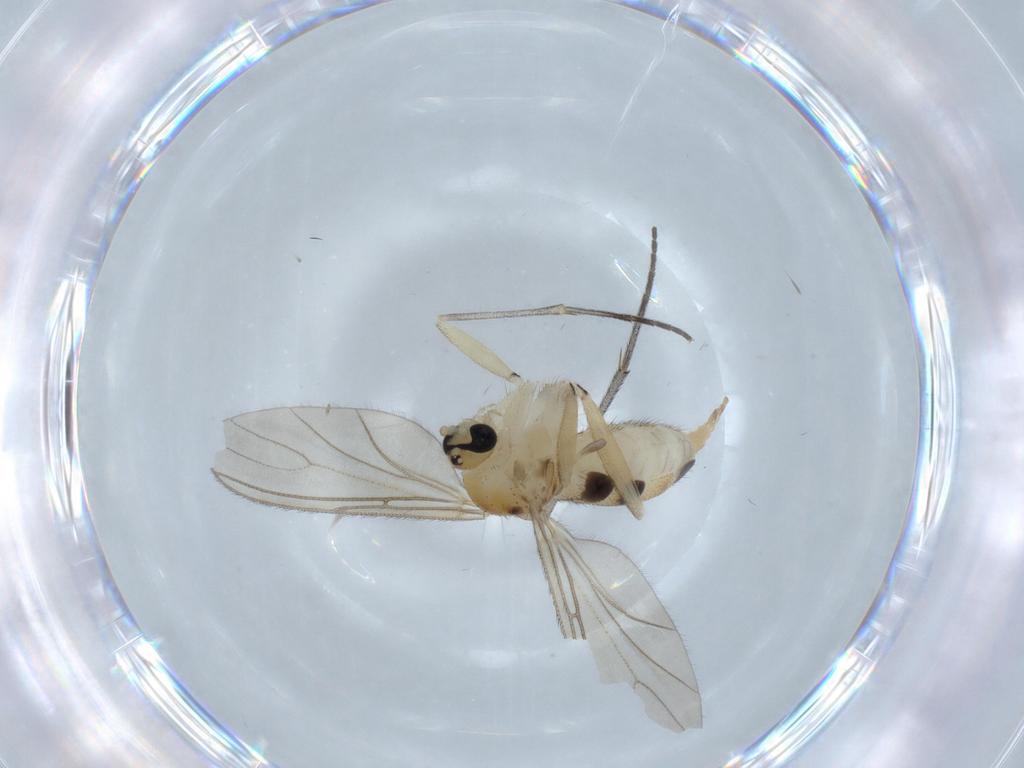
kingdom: Animalia
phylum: Arthropoda
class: Insecta
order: Diptera
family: Sciaridae
